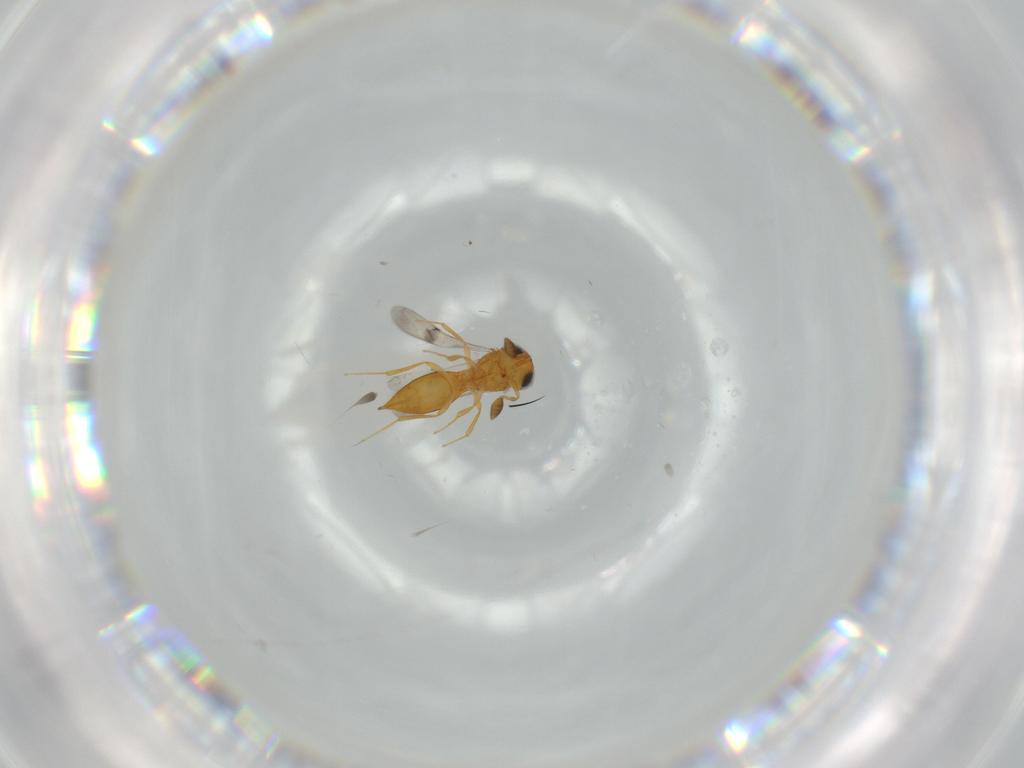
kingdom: Animalia
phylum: Arthropoda
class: Insecta
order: Hymenoptera
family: Scelionidae
